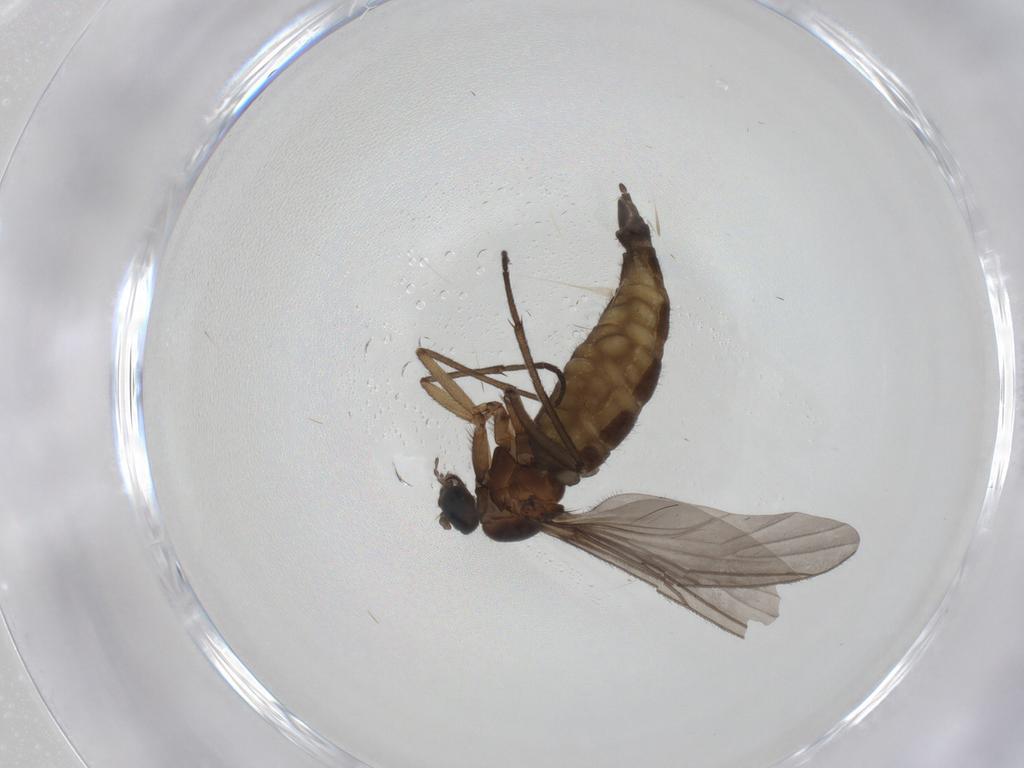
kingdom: Animalia
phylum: Arthropoda
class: Insecta
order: Diptera
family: Sciaridae
